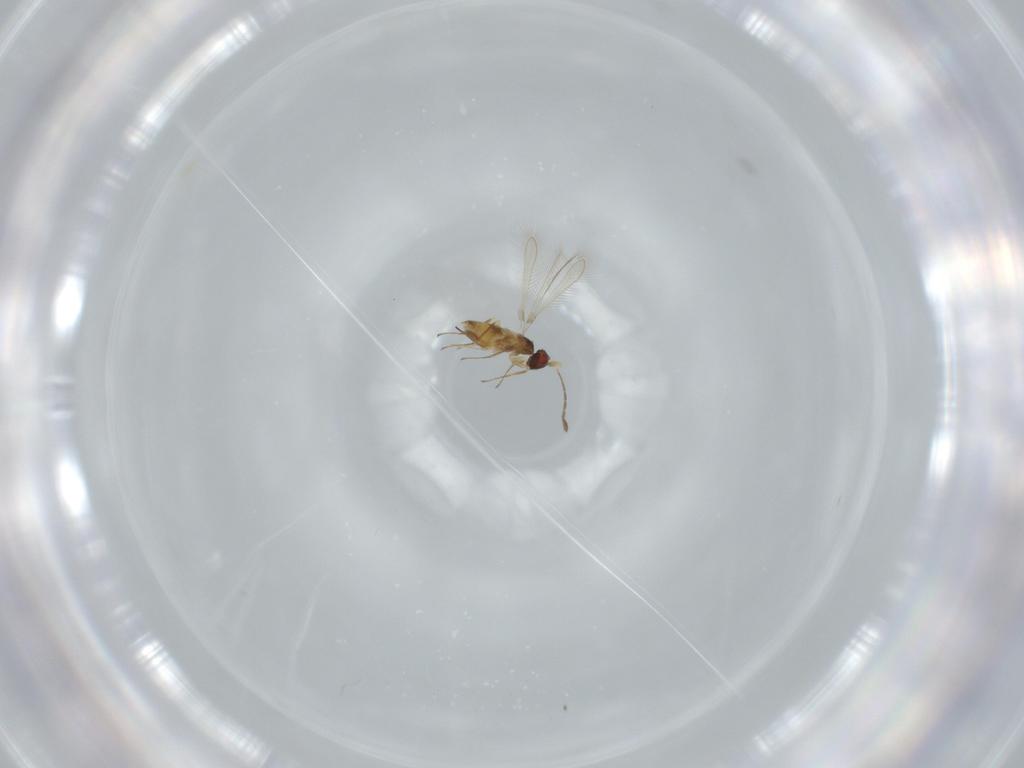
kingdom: Animalia
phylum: Arthropoda
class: Insecta
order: Hymenoptera
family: Mymaridae
